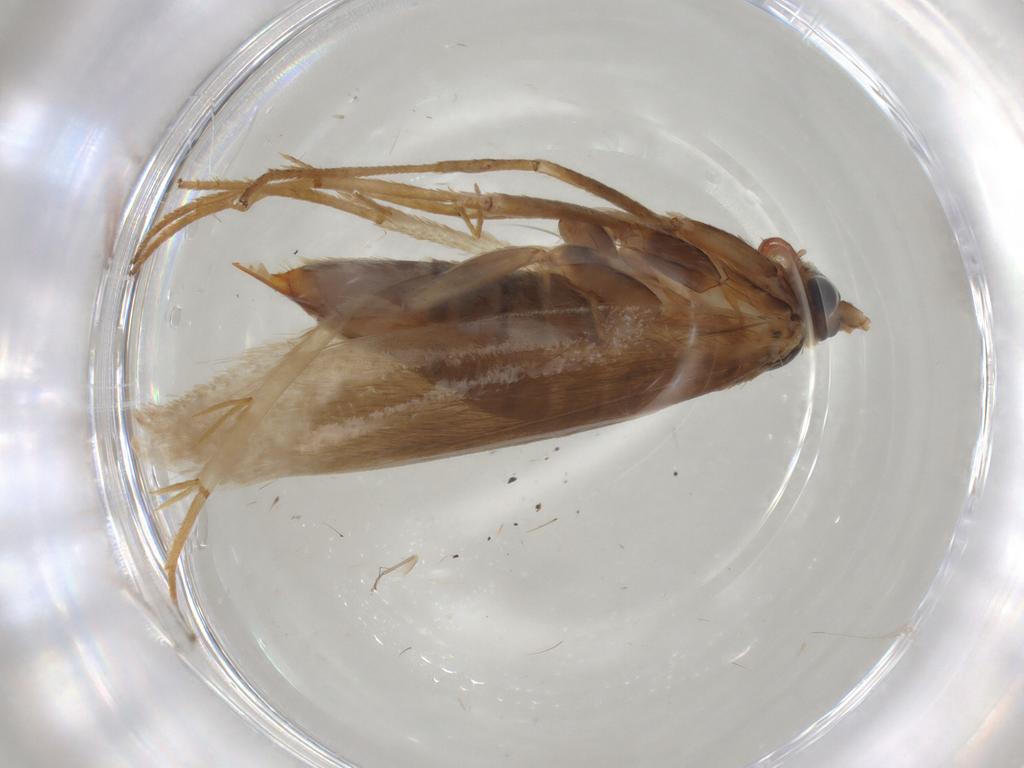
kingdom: Animalia
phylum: Arthropoda
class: Insecta
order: Lepidoptera
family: Adelidae
